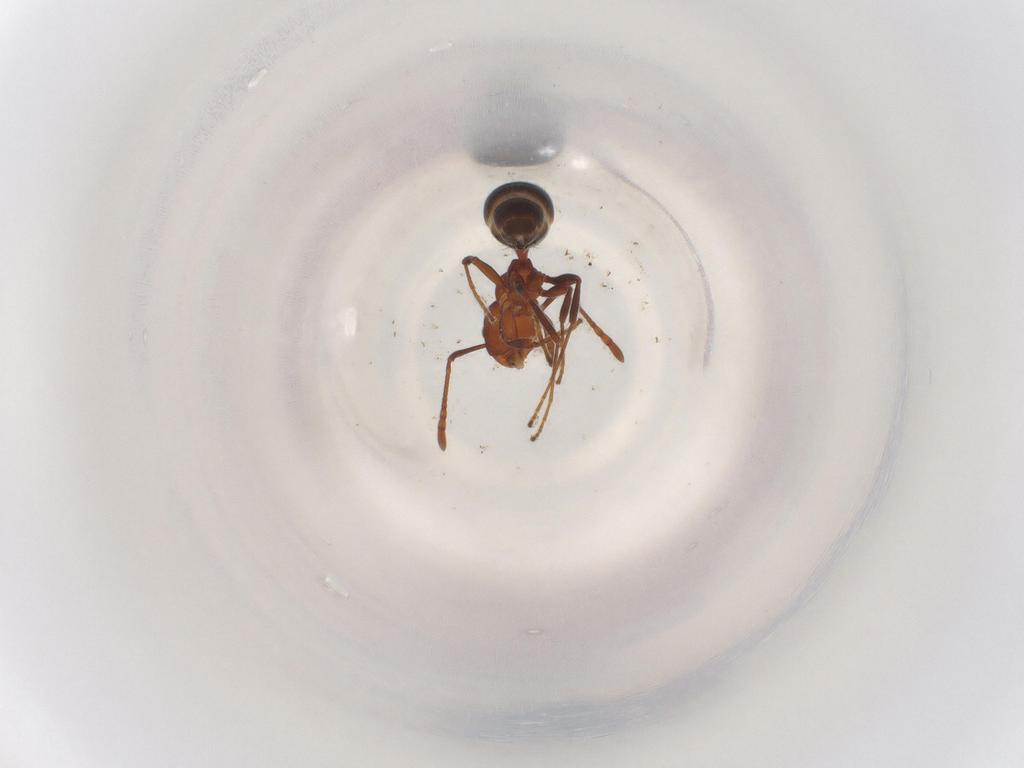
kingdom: Animalia
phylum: Arthropoda
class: Insecta
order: Hymenoptera
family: Formicidae
